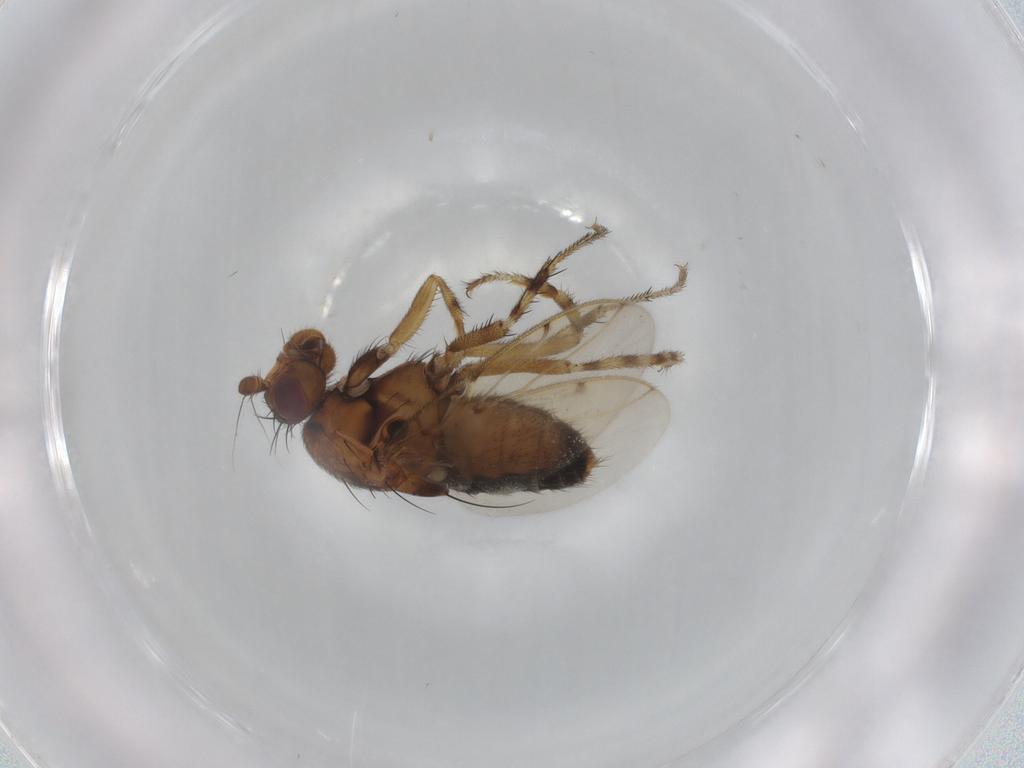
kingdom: Animalia
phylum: Arthropoda
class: Insecta
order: Diptera
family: Sphaeroceridae
